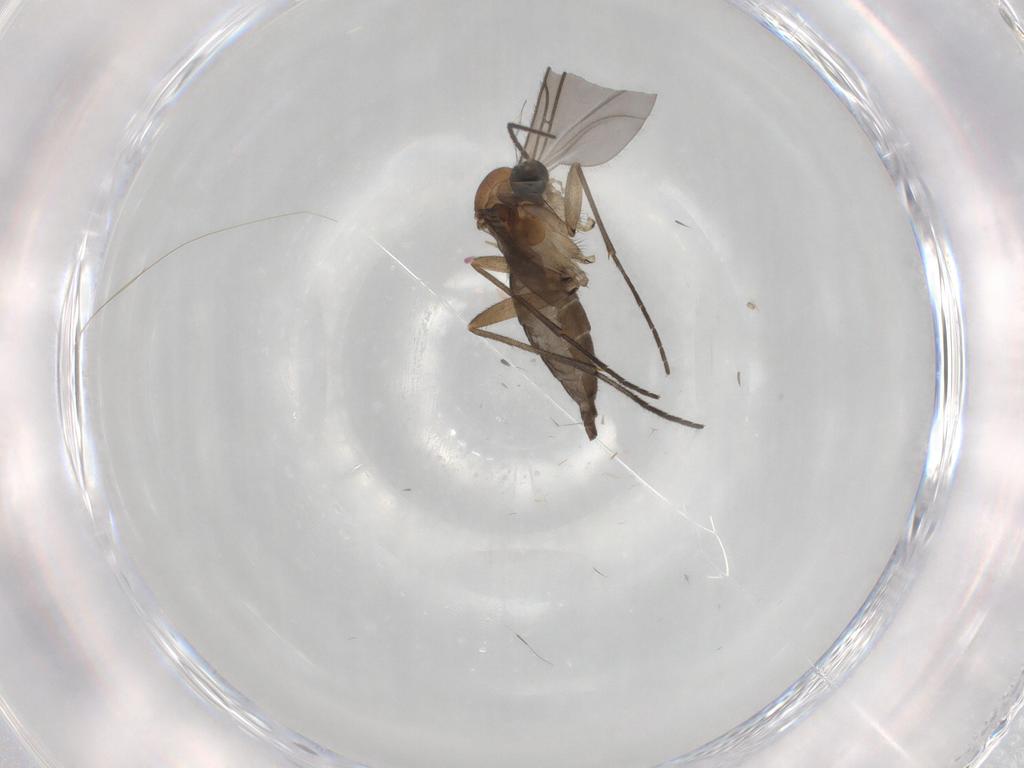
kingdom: Animalia
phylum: Arthropoda
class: Insecta
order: Diptera
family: Sciaridae
